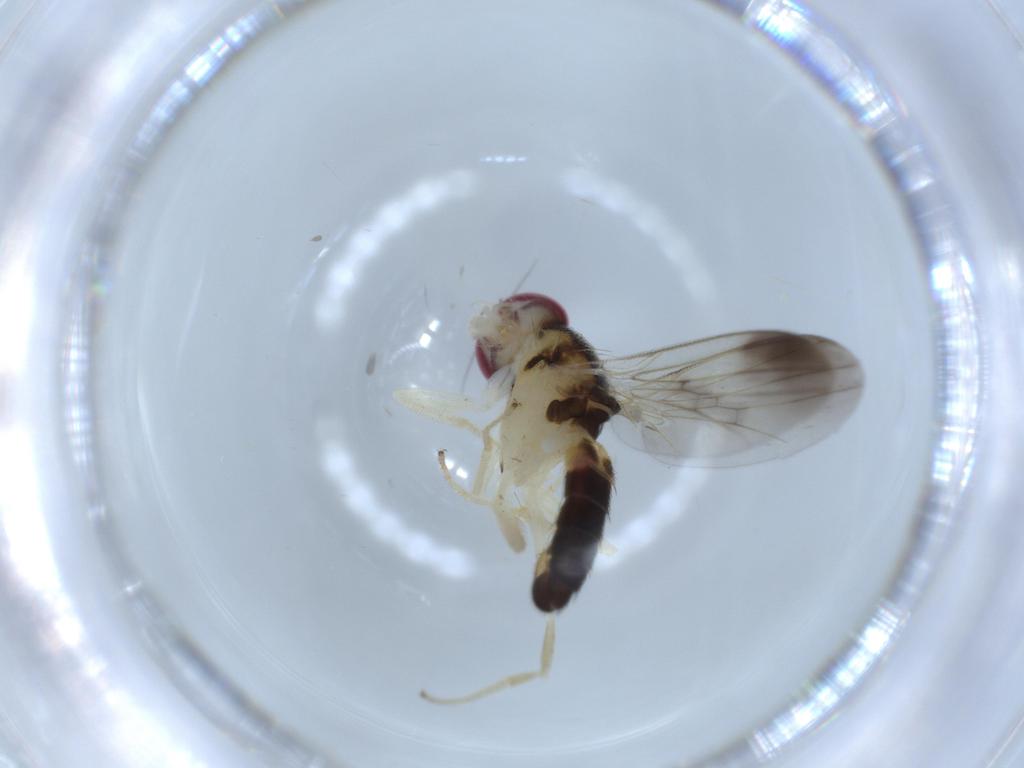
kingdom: Animalia
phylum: Arthropoda
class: Insecta
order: Diptera
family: Clusiidae
